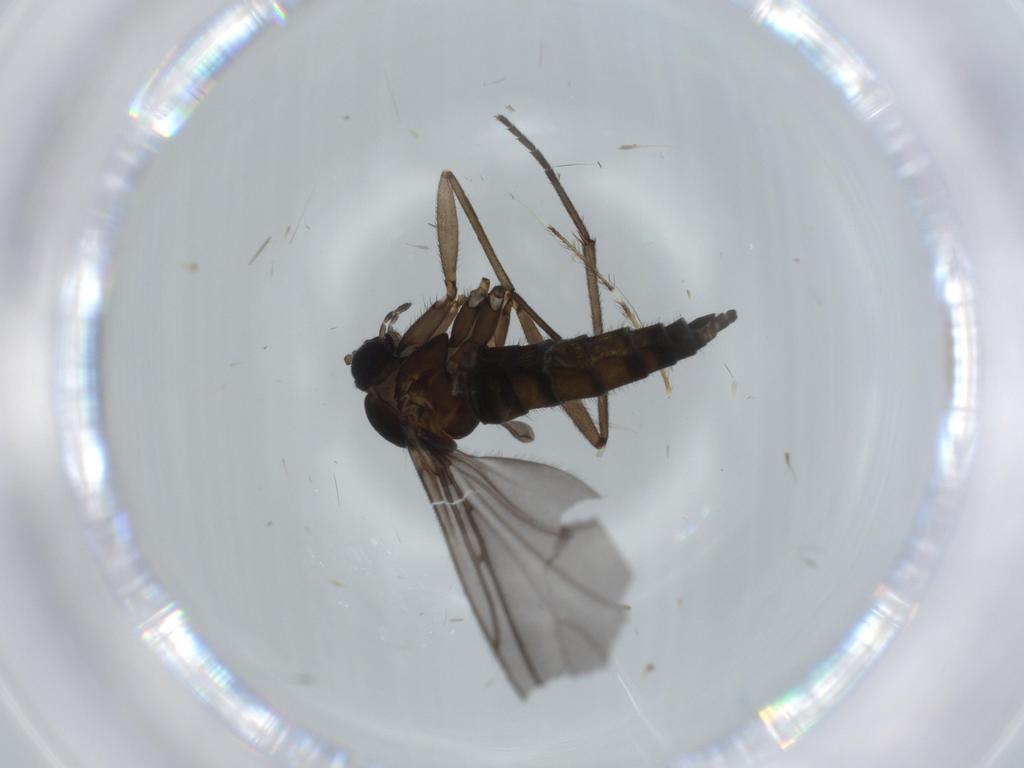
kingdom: Animalia
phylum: Arthropoda
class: Insecta
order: Diptera
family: Sciaridae
